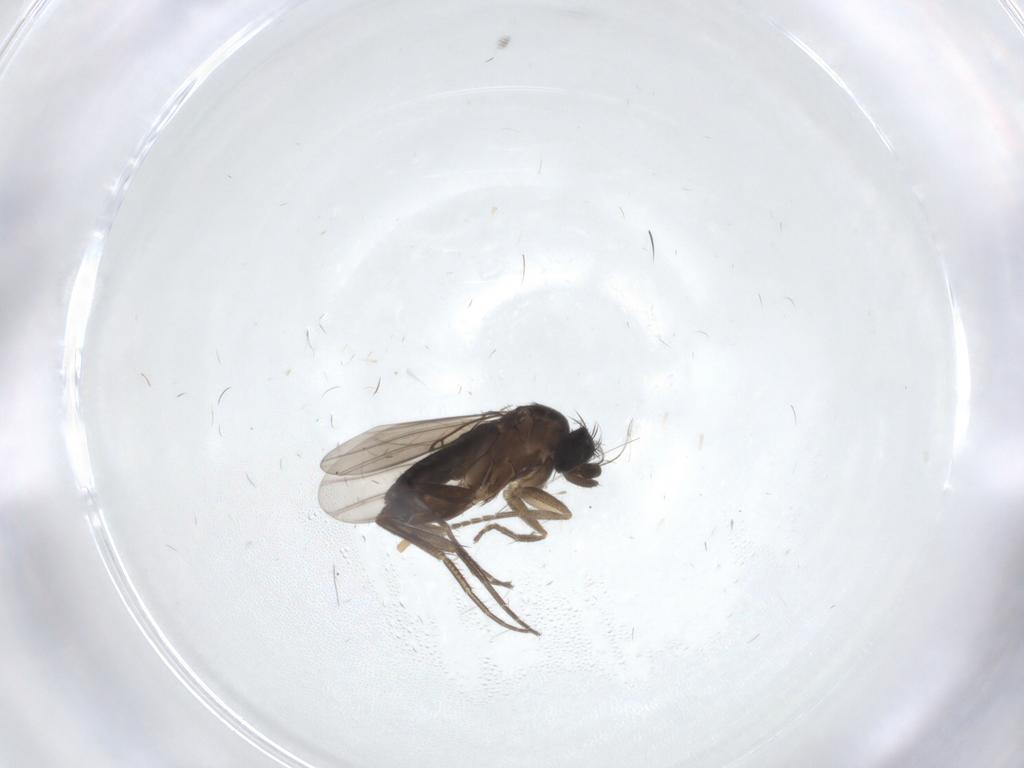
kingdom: Animalia
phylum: Arthropoda
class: Insecta
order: Diptera
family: Phoridae
